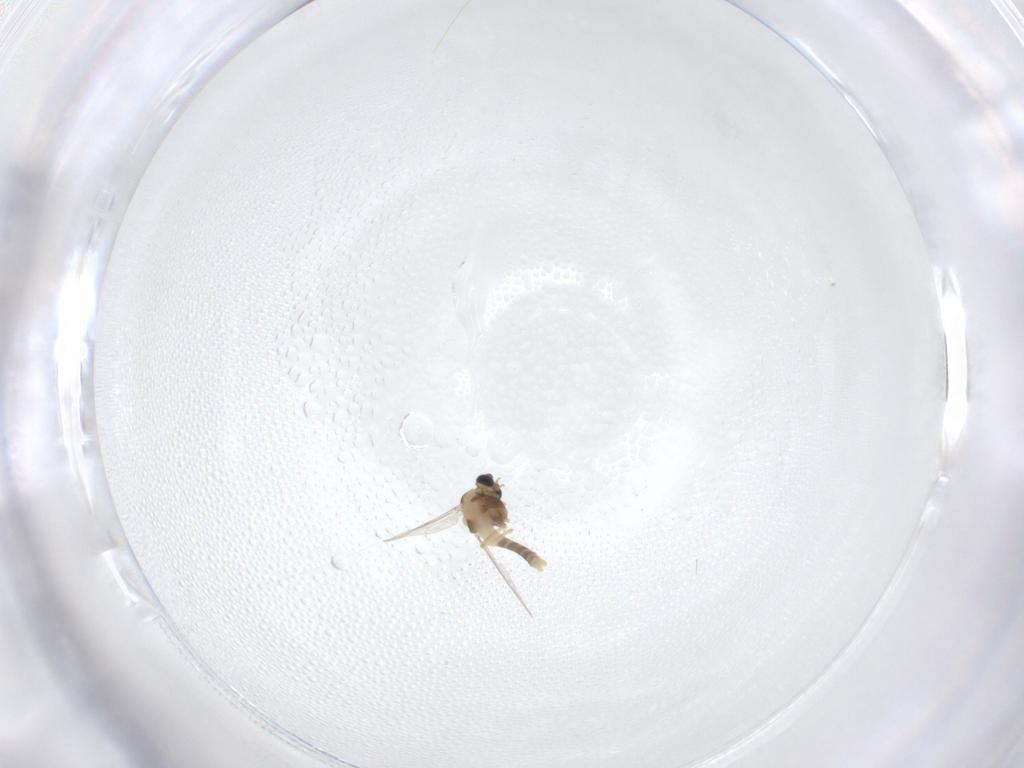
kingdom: Animalia
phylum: Arthropoda
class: Insecta
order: Diptera
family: Chironomidae
